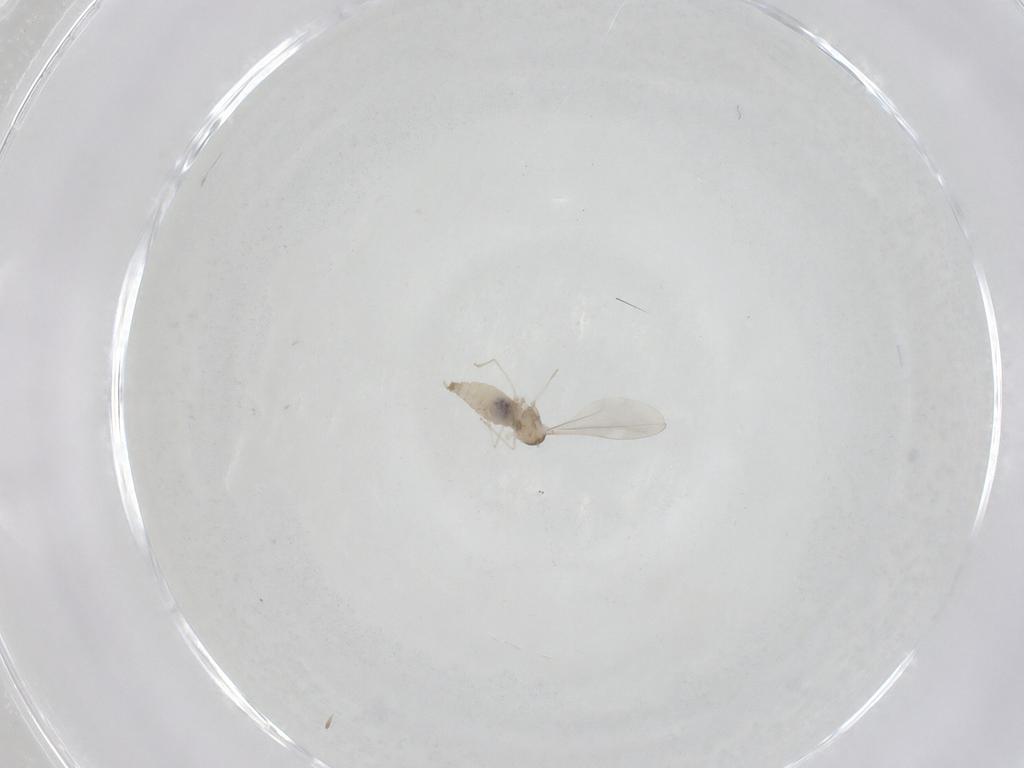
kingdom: Animalia
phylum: Arthropoda
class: Insecta
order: Diptera
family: Cecidomyiidae
